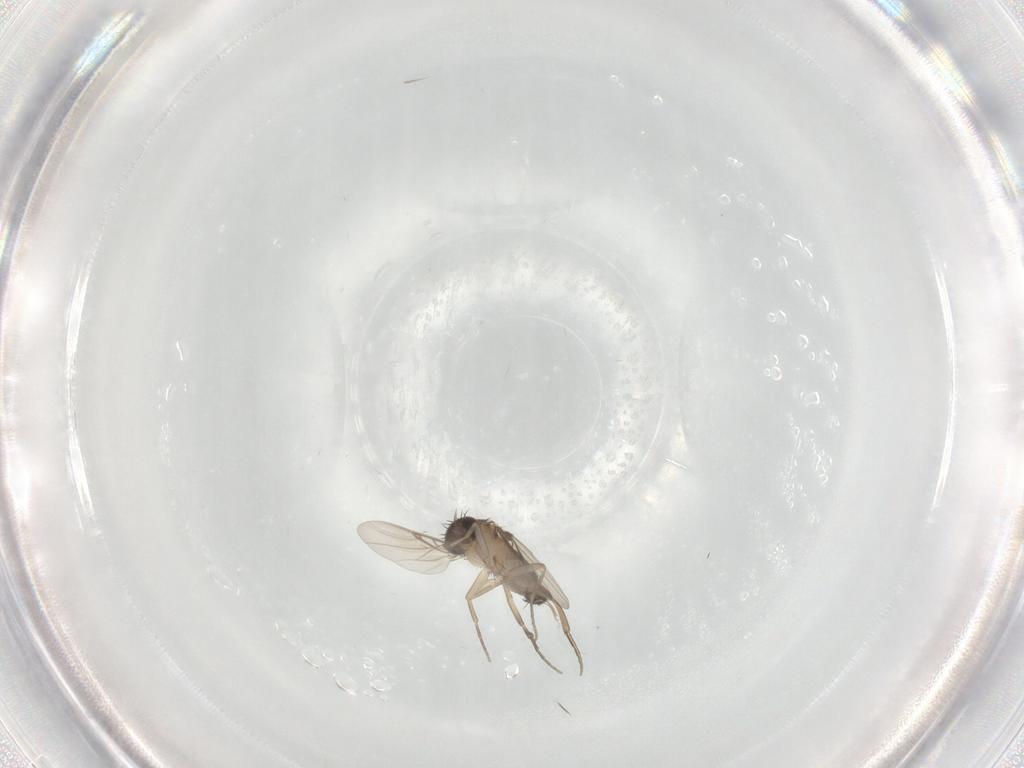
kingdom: Animalia
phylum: Arthropoda
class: Insecta
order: Diptera
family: Phoridae
